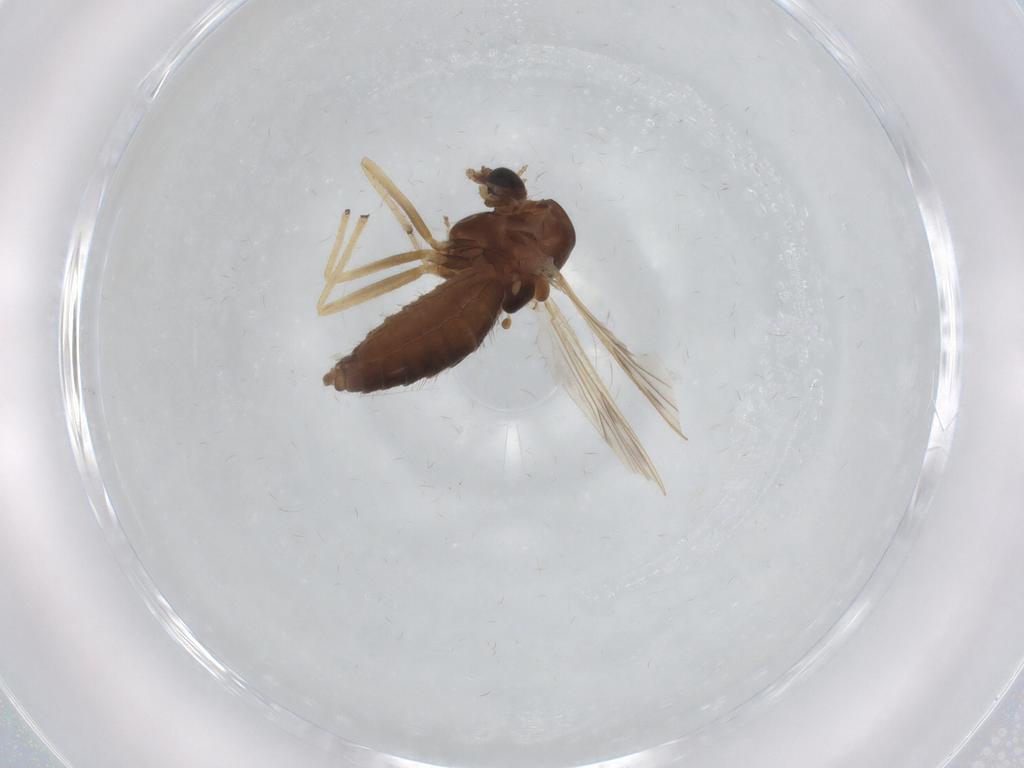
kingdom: Animalia
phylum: Arthropoda
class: Insecta
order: Diptera
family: Chironomidae
